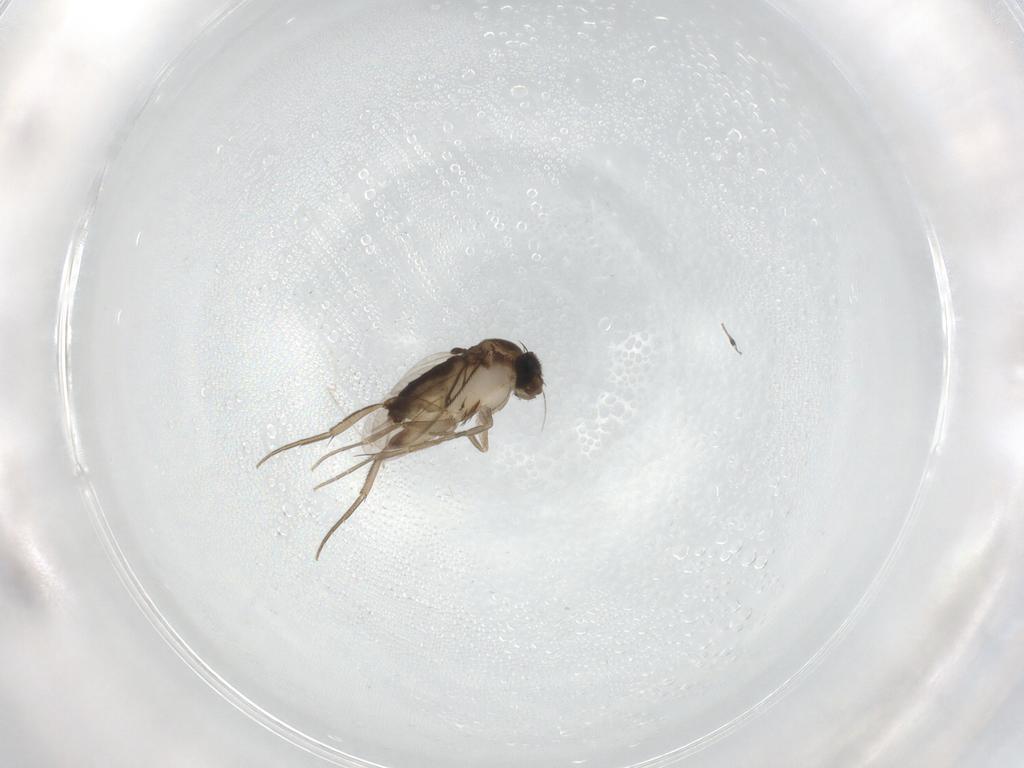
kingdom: Animalia
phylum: Arthropoda
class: Insecta
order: Diptera
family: Phoridae
